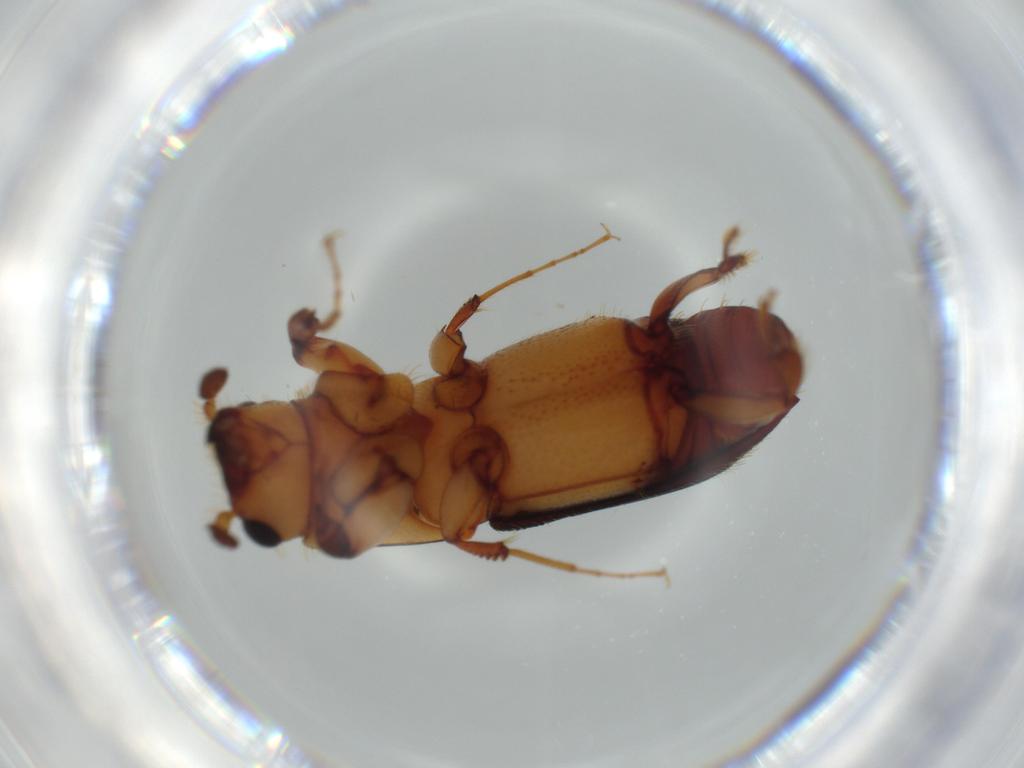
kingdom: Animalia
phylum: Arthropoda
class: Insecta
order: Coleoptera
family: Curculionidae
